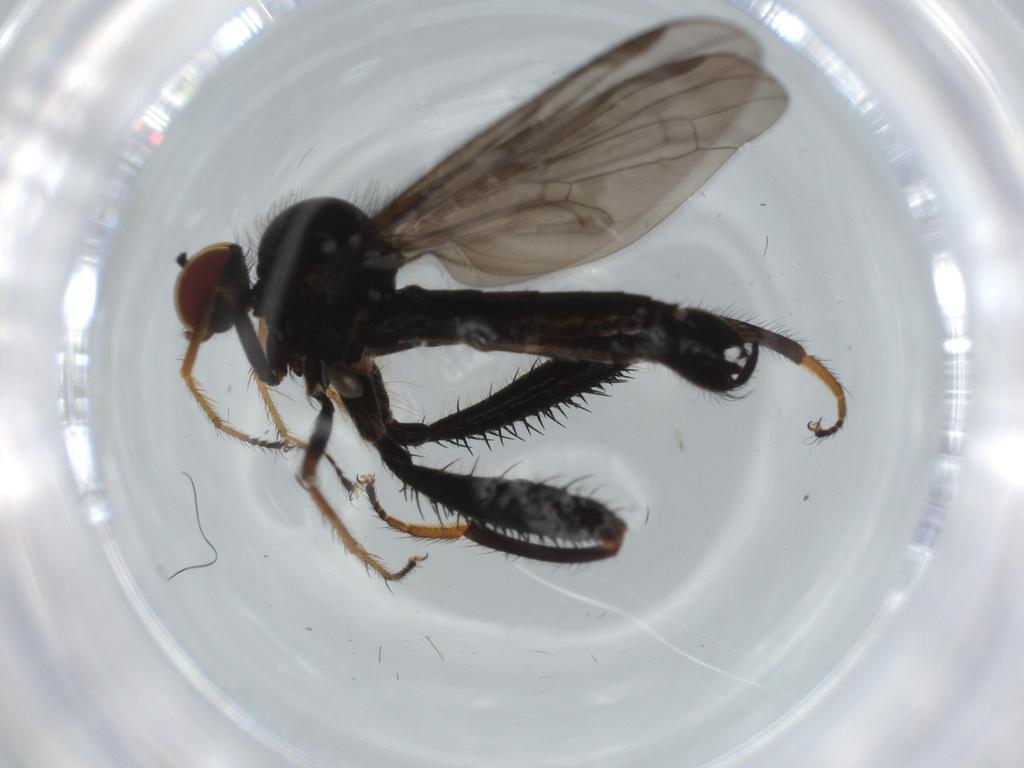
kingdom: Animalia
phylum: Arthropoda
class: Insecta
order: Diptera
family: Hybotidae
